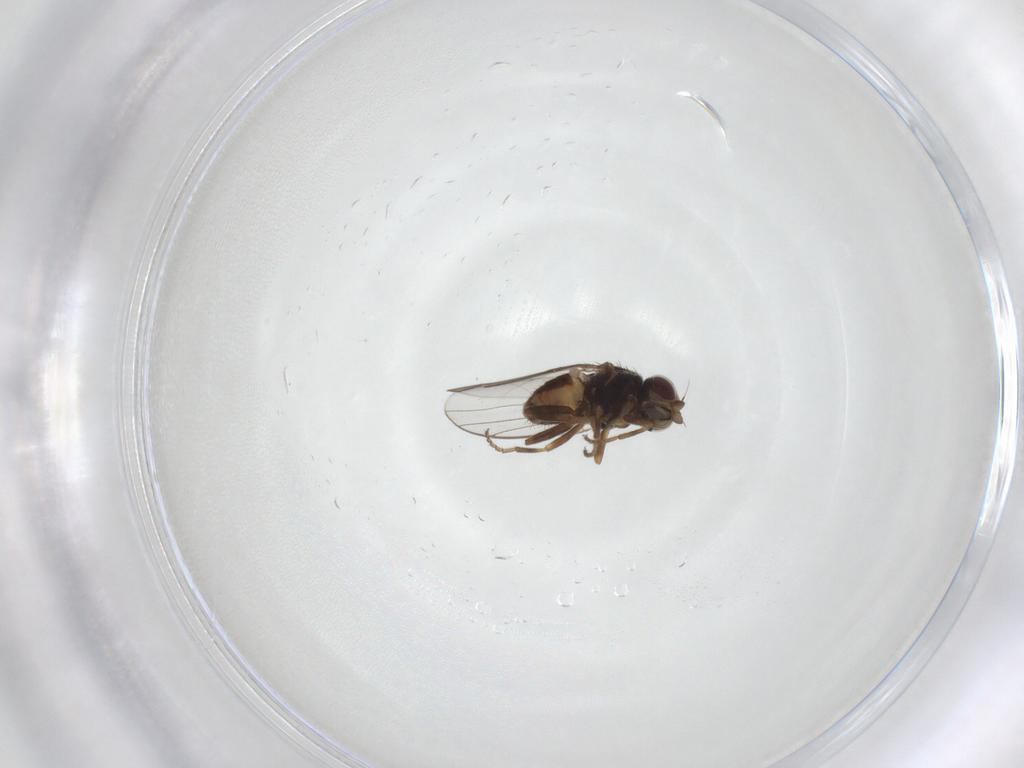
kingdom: Animalia
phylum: Arthropoda
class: Insecta
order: Diptera
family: Chloropidae
